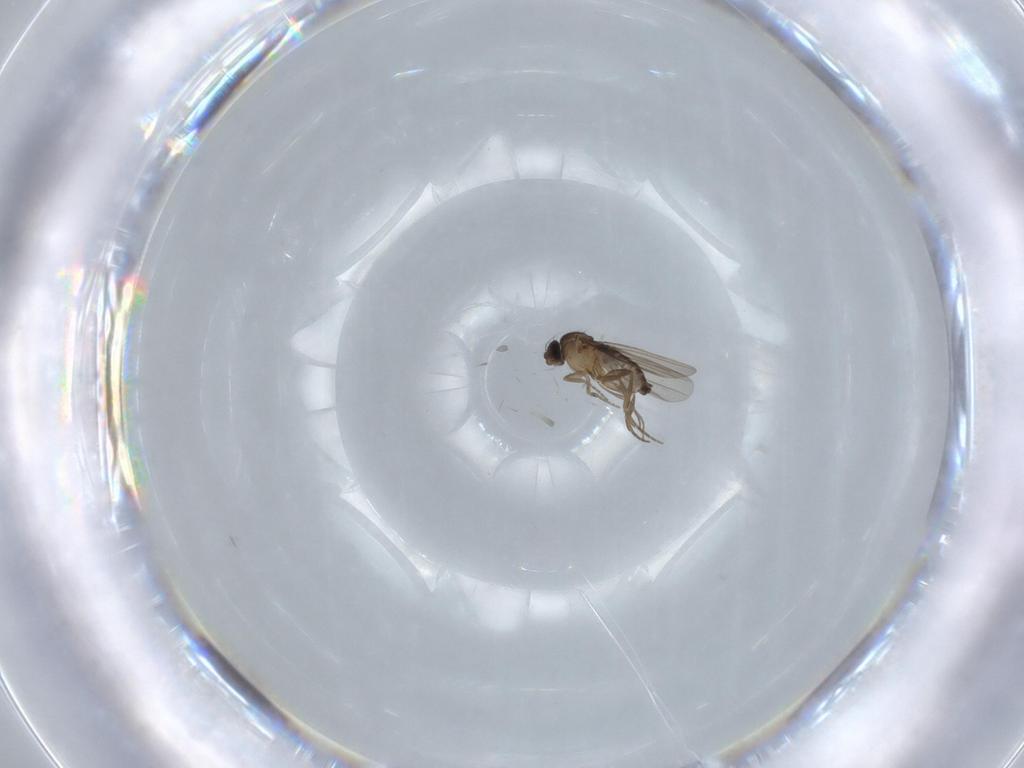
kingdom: Animalia
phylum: Arthropoda
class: Insecta
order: Diptera
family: Phoridae
